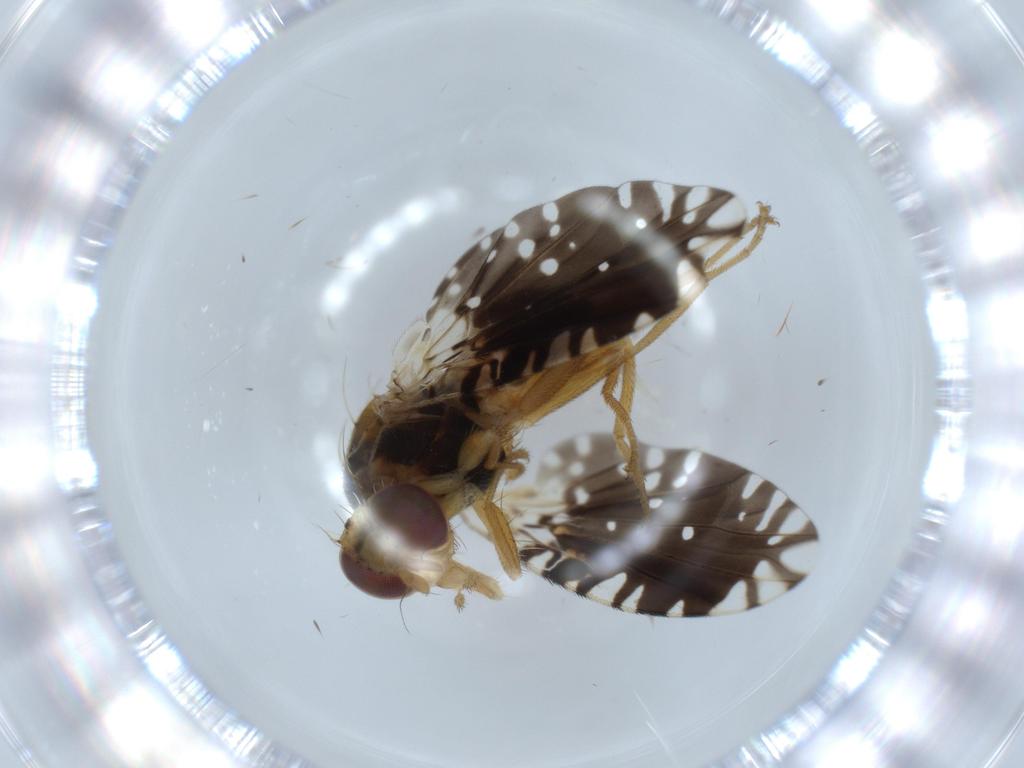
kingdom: Animalia
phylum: Arthropoda
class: Insecta
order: Diptera
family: Tephritidae
